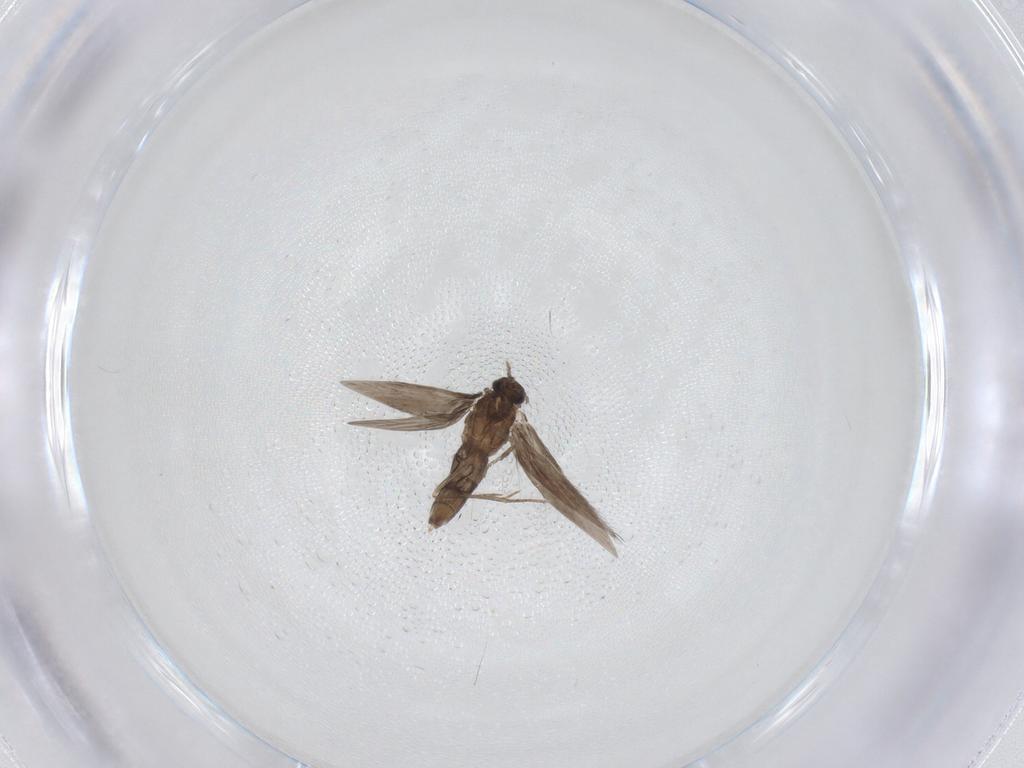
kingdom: Animalia
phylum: Arthropoda
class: Insecta
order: Trichoptera
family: Hydroptilidae
